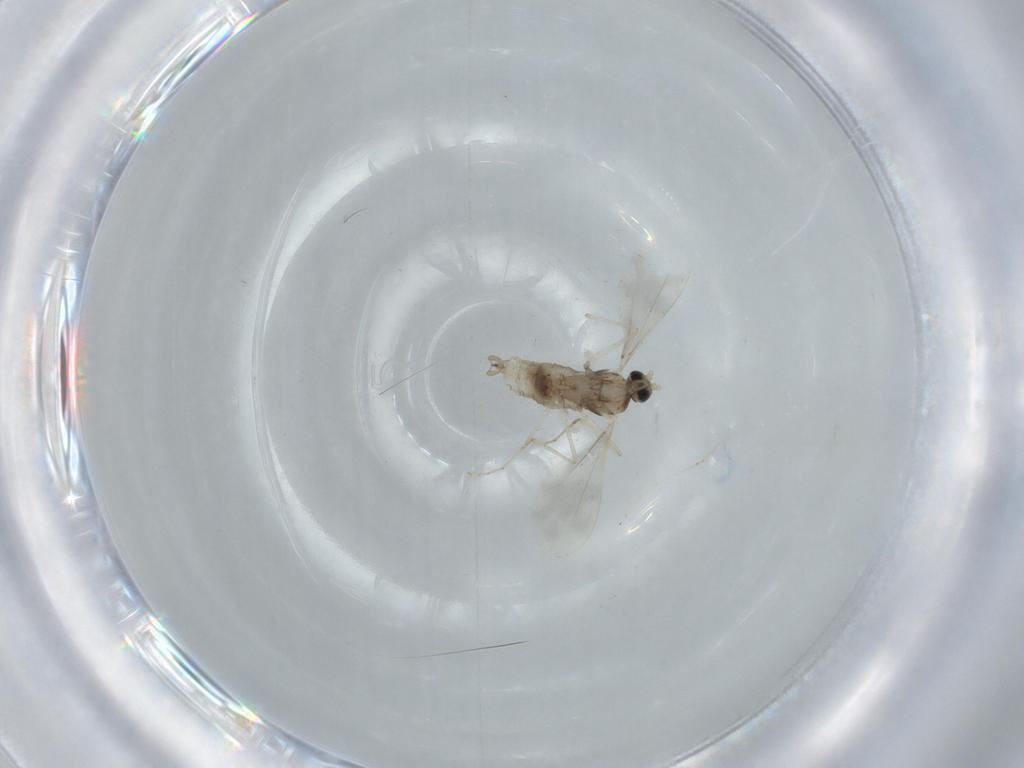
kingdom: Animalia
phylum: Arthropoda
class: Insecta
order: Diptera
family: Cecidomyiidae
